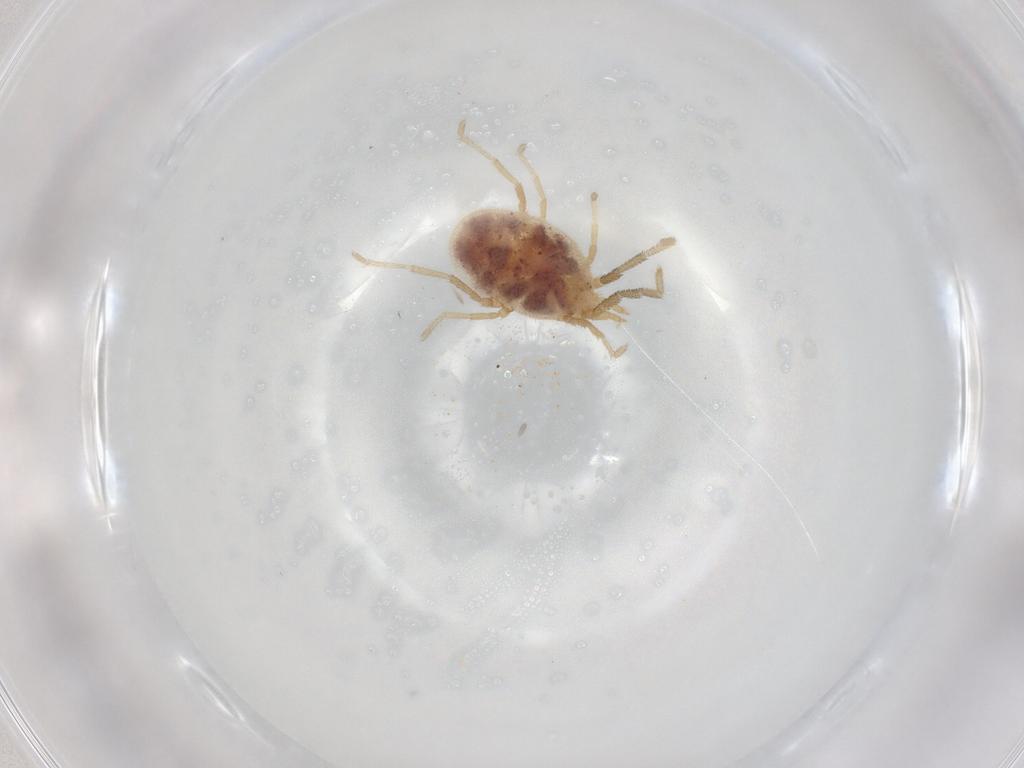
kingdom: Animalia
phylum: Arthropoda
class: Arachnida
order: Trombidiformes
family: Erythraeidae
